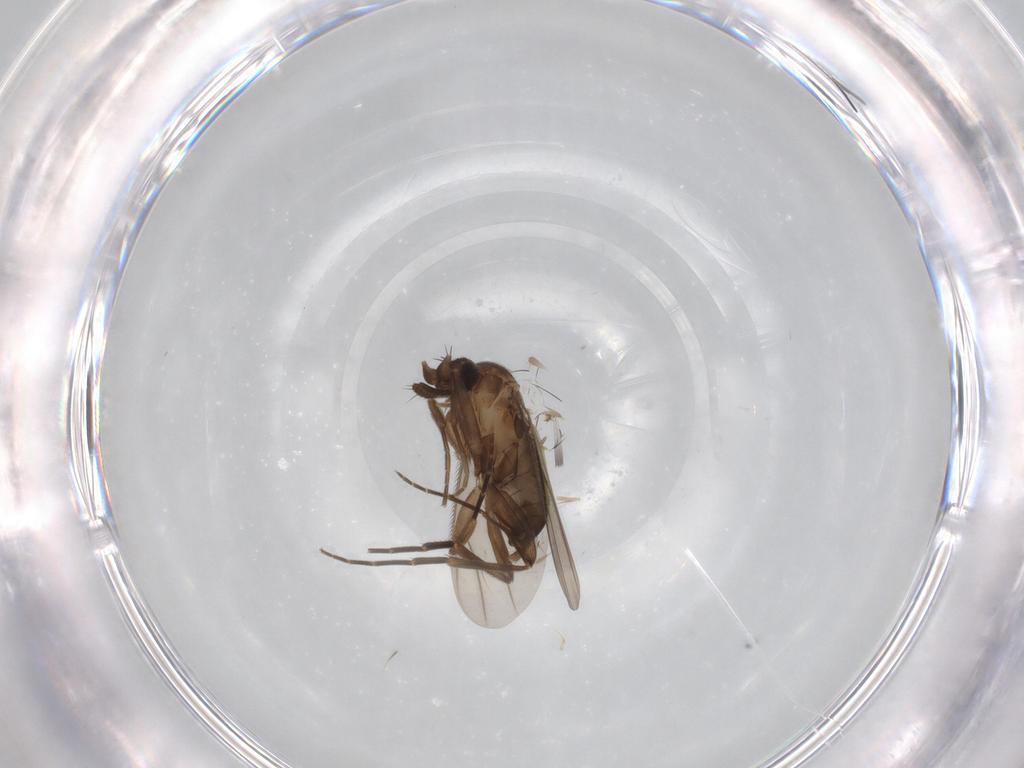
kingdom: Animalia
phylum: Arthropoda
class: Insecta
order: Diptera
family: Phoridae
